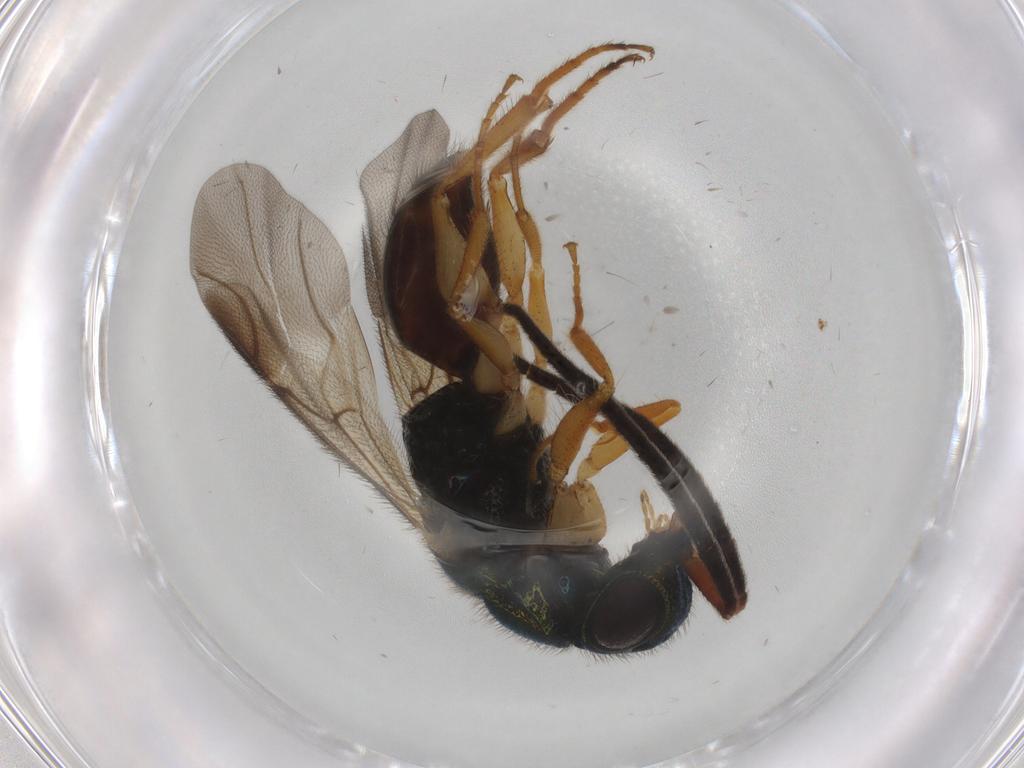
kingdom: Animalia
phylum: Arthropoda
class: Insecta
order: Hymenoptera
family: Chrysididae
